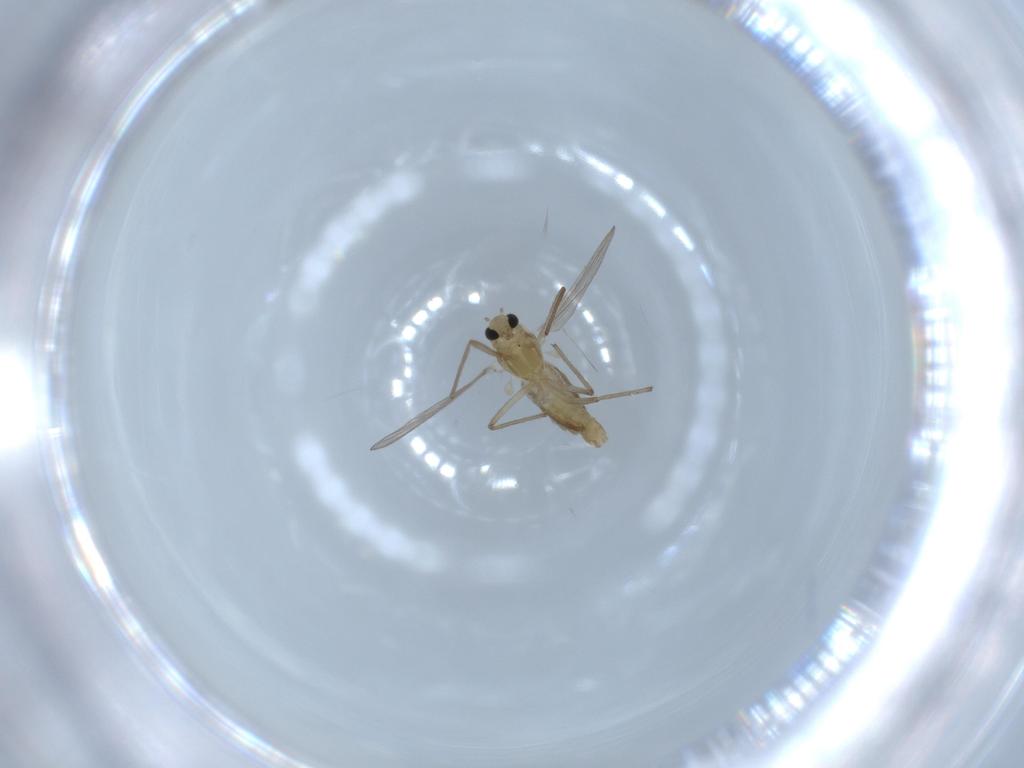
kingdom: Animalia
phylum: Arthropoda
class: Insecta
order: Diptera
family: Chironomidae
